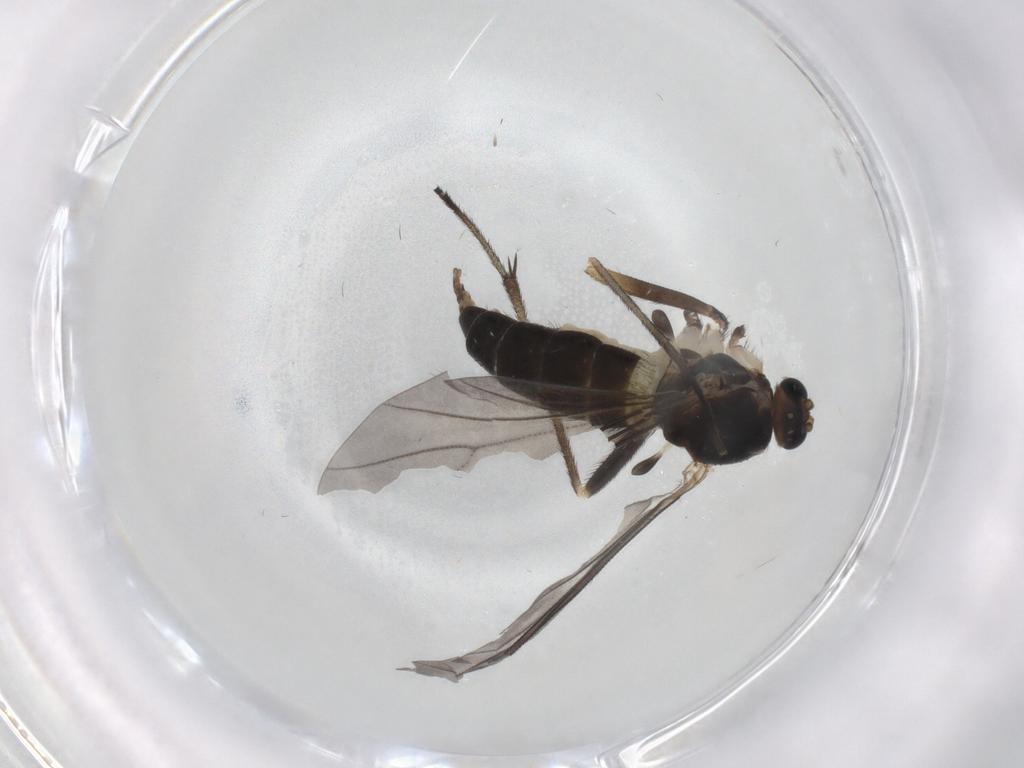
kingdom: Animalia
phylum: Arthropoda
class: Insecta
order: Diptera
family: Sciaridae
